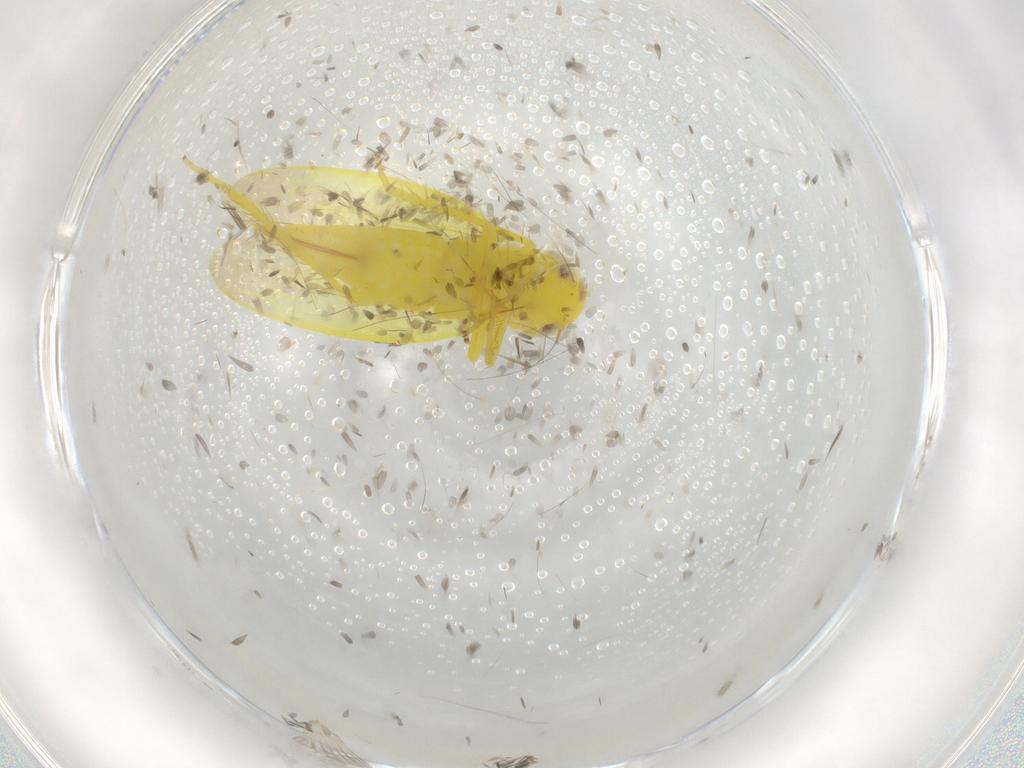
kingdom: Animalia
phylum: Arthropoda
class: Insecta
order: Hemiptera
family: Cicadellidae
